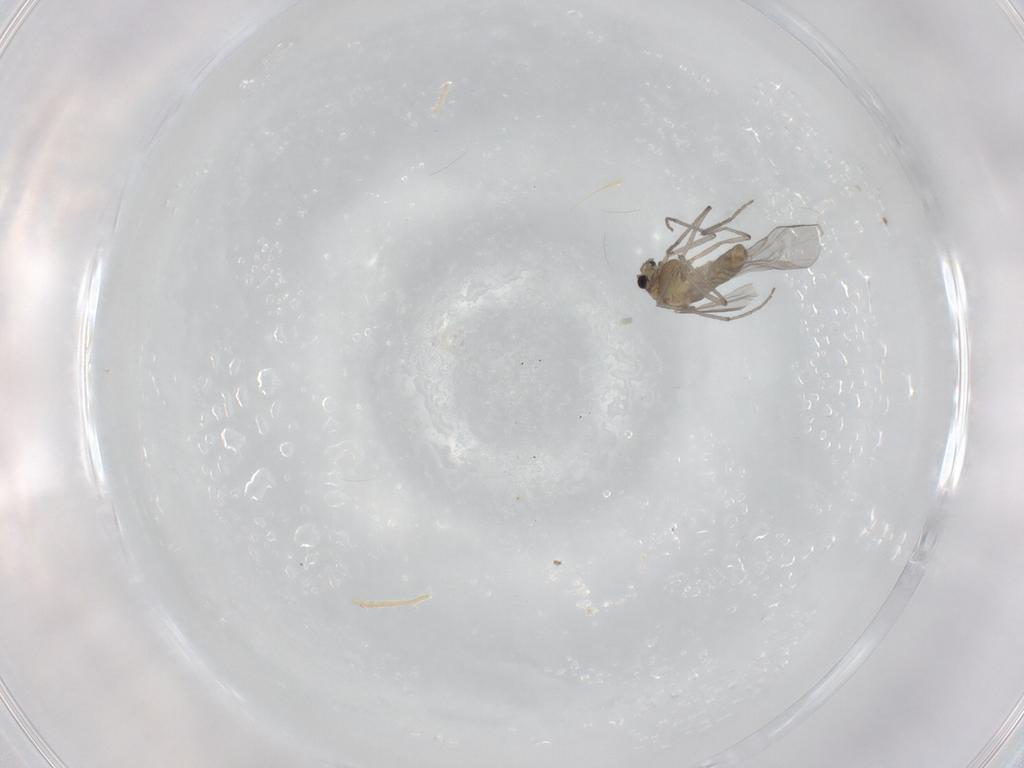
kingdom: Animalia
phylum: Arthropoda
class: Insecta
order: Diptera
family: Chironomidae
